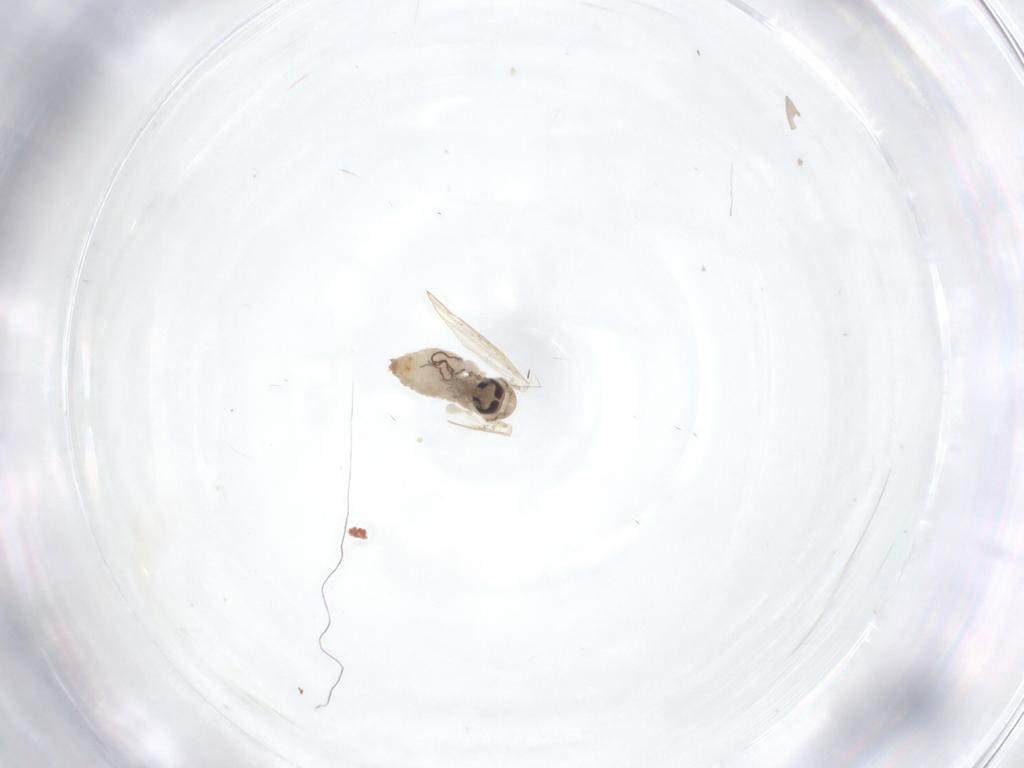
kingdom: Animalia
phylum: Arthropoda
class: Insecta
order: Diptera
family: Psychodidae
